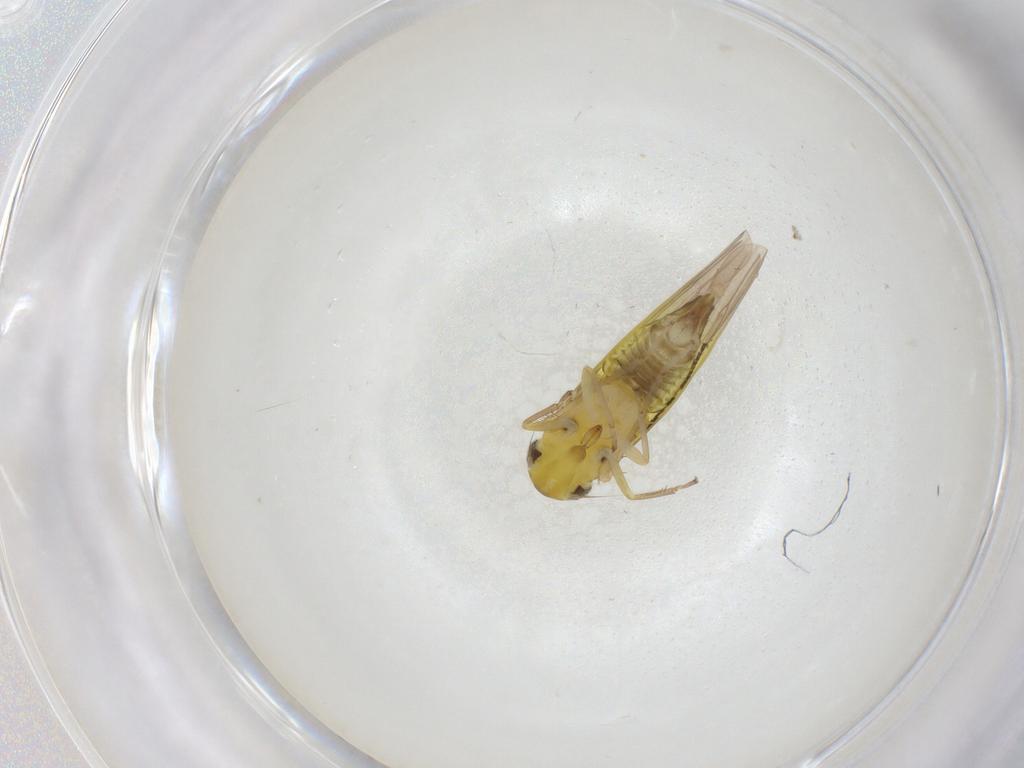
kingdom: Animalia
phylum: Arthropoda
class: Insecta
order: Hemiptera
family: Cicadellidae
